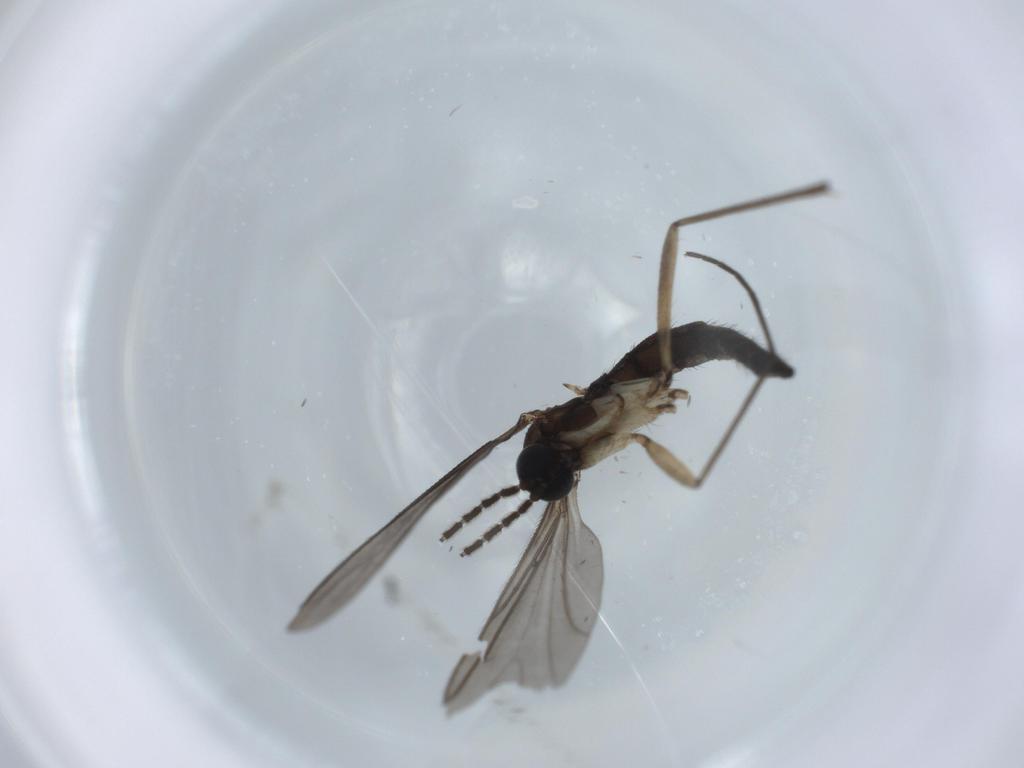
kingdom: Animalia
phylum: Arthropoda
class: Insecta
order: Diptera
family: Sciaridae
